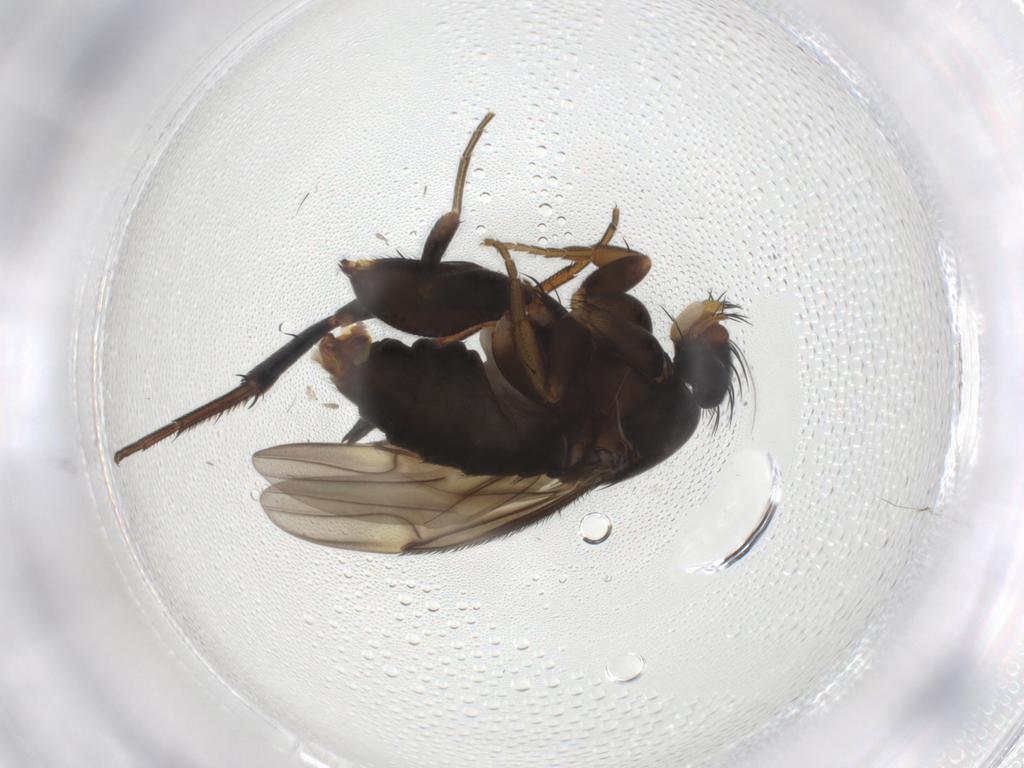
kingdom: Animalia
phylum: Arthropoda
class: Insecta
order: Diptera
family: Phoridae
